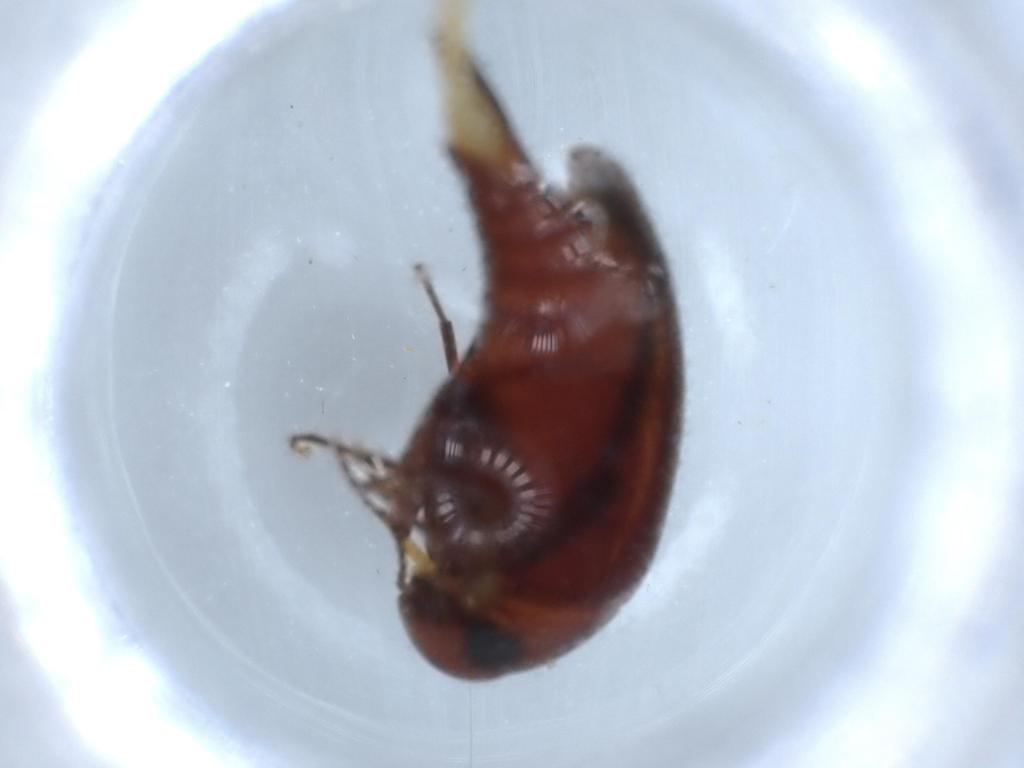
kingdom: Animalia
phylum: Arthropoda
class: Insecta
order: Coleoptera
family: Mordellidae
